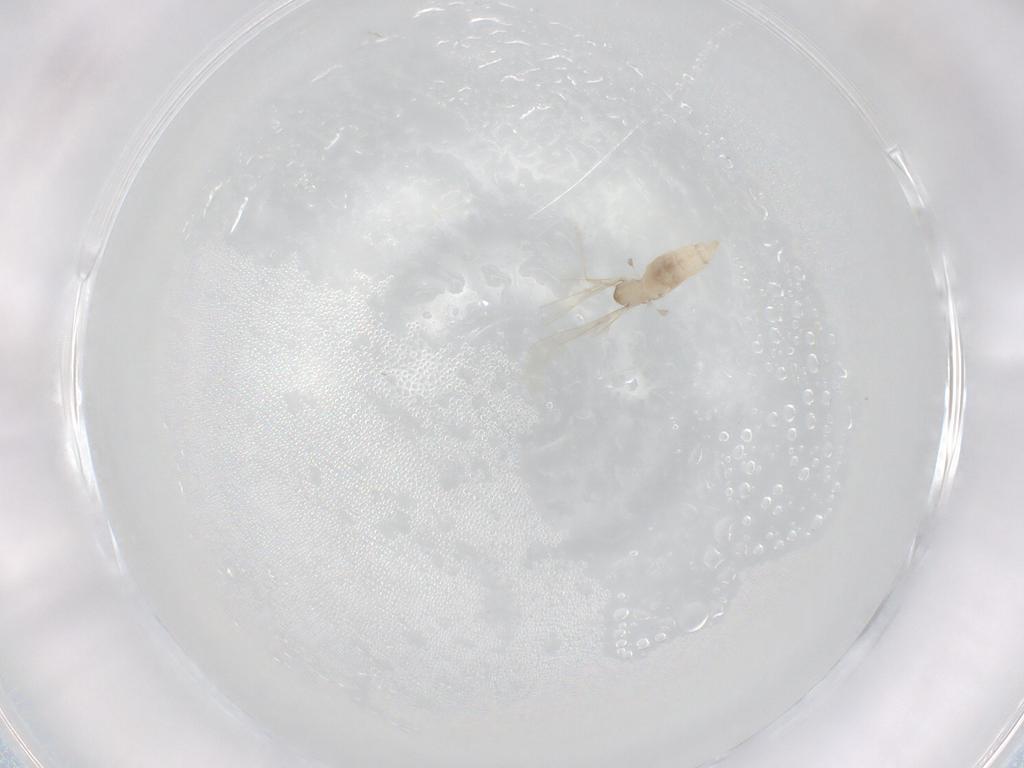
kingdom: Animalia
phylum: Arthropoda
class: Insecta
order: Diptera
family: Cecidomyiidae
